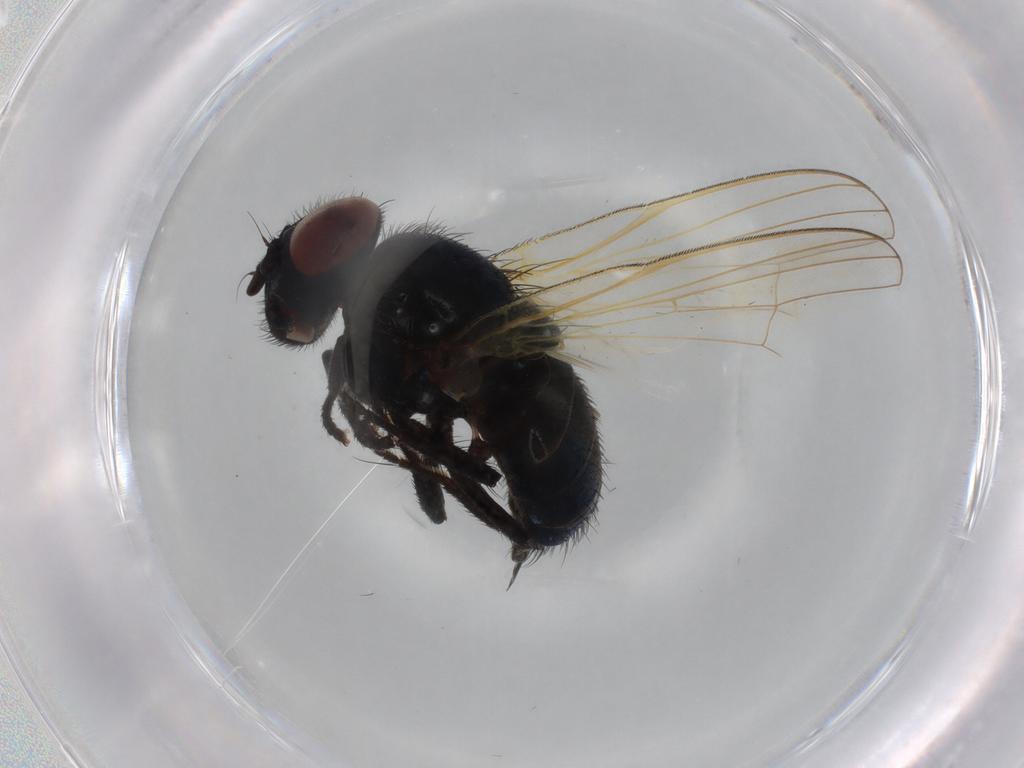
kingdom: Animalia
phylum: Arthropoda
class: Insecta
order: Diptera
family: Lonchaeidae
